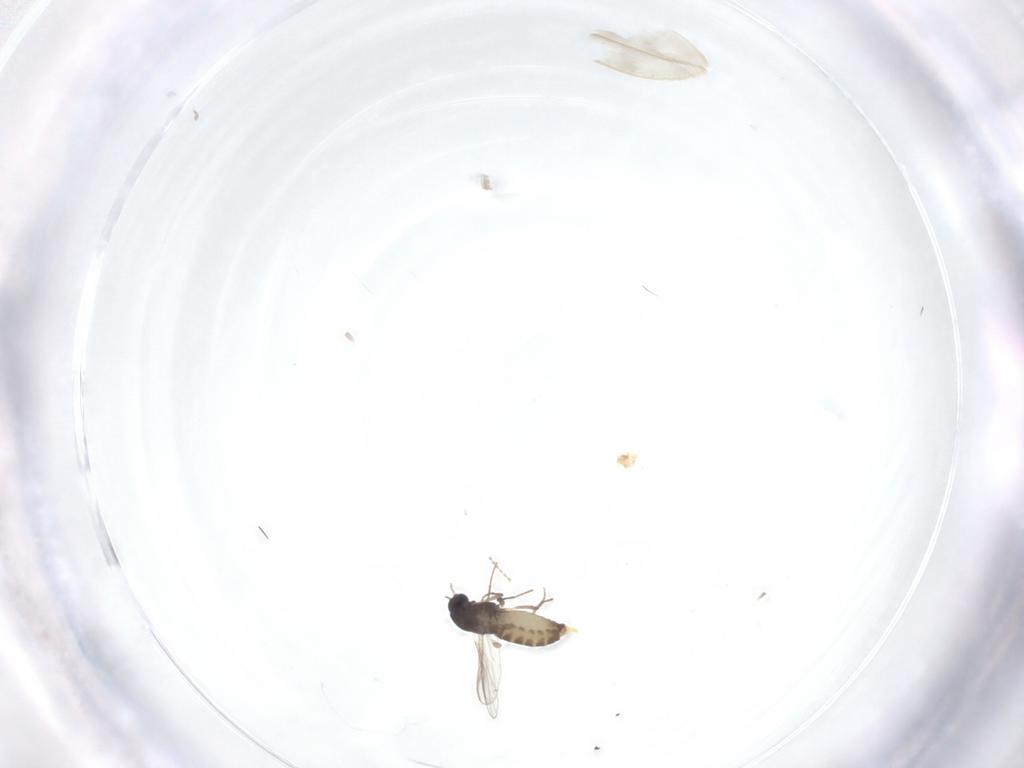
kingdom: Animalia
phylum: Arthropoda
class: Insecta
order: Diptera
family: Chironomidae
